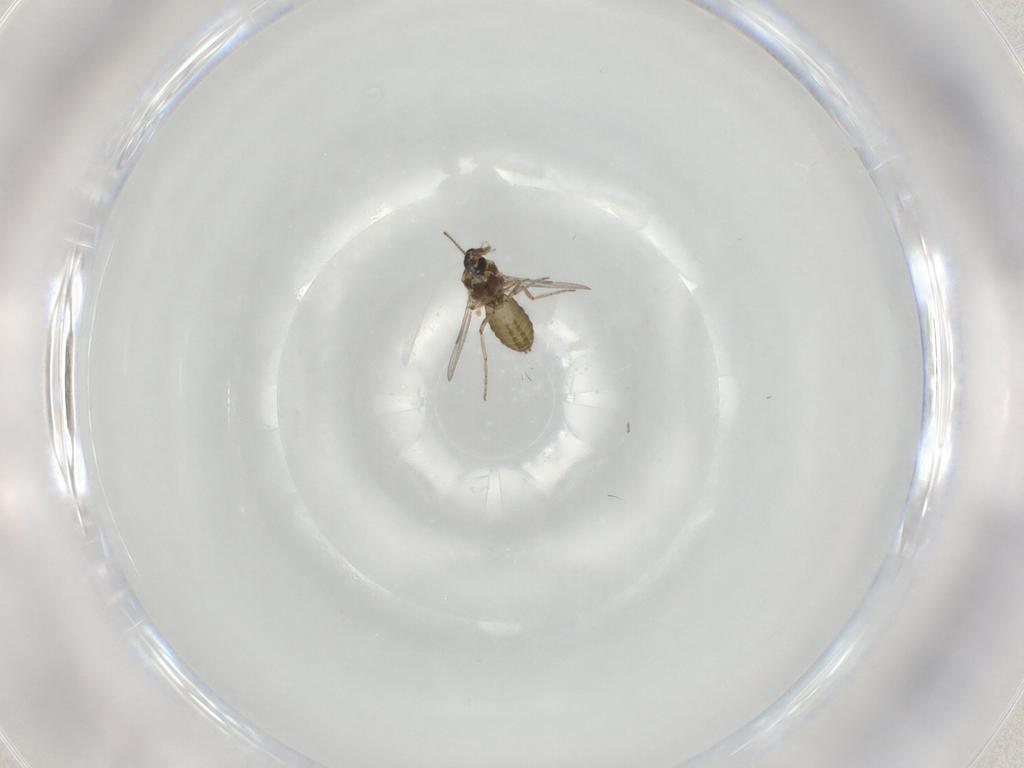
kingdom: Animalia
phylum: Arthropoda
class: Insecta
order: Diptera
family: Ceratopogonidae
